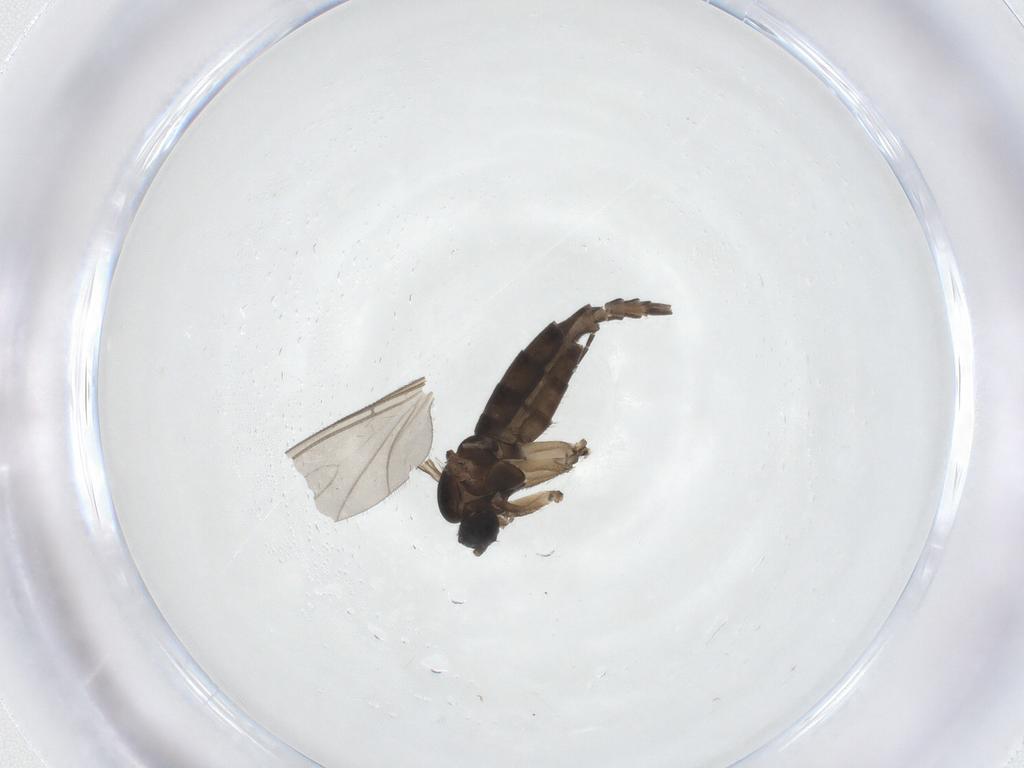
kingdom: Animalia
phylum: Arthropoda
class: Insecta
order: Diptera
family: Sciaridae
